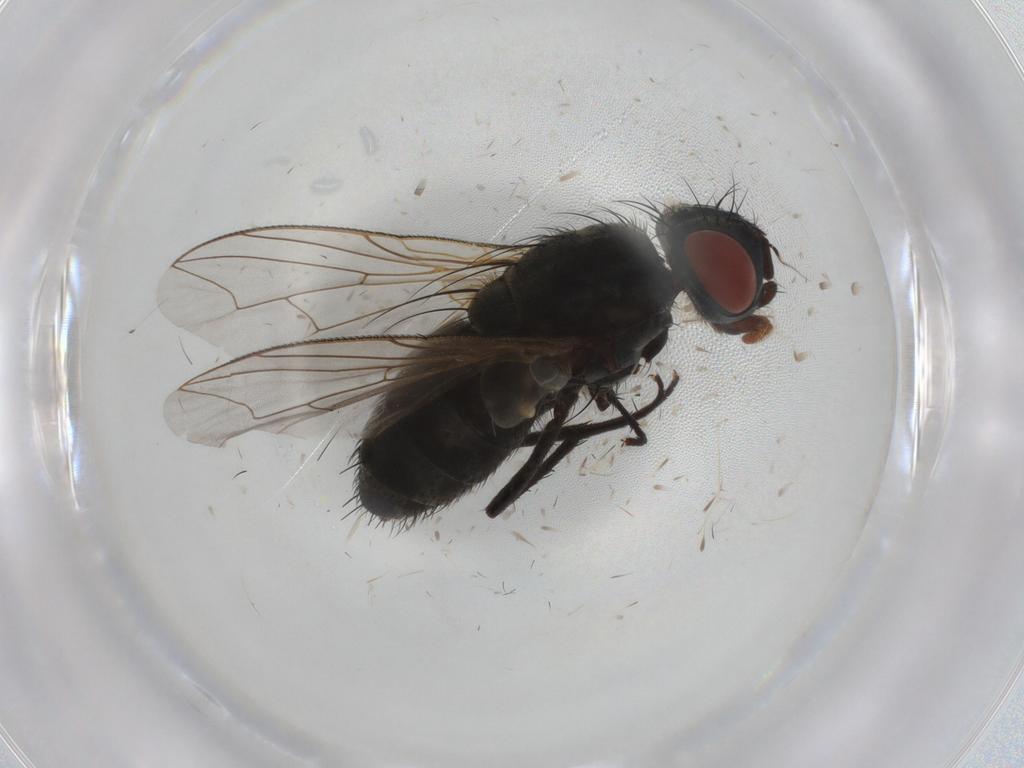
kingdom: Animalia
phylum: Arthropoda
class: Insecta
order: Diptera
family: Sarcophagidae
